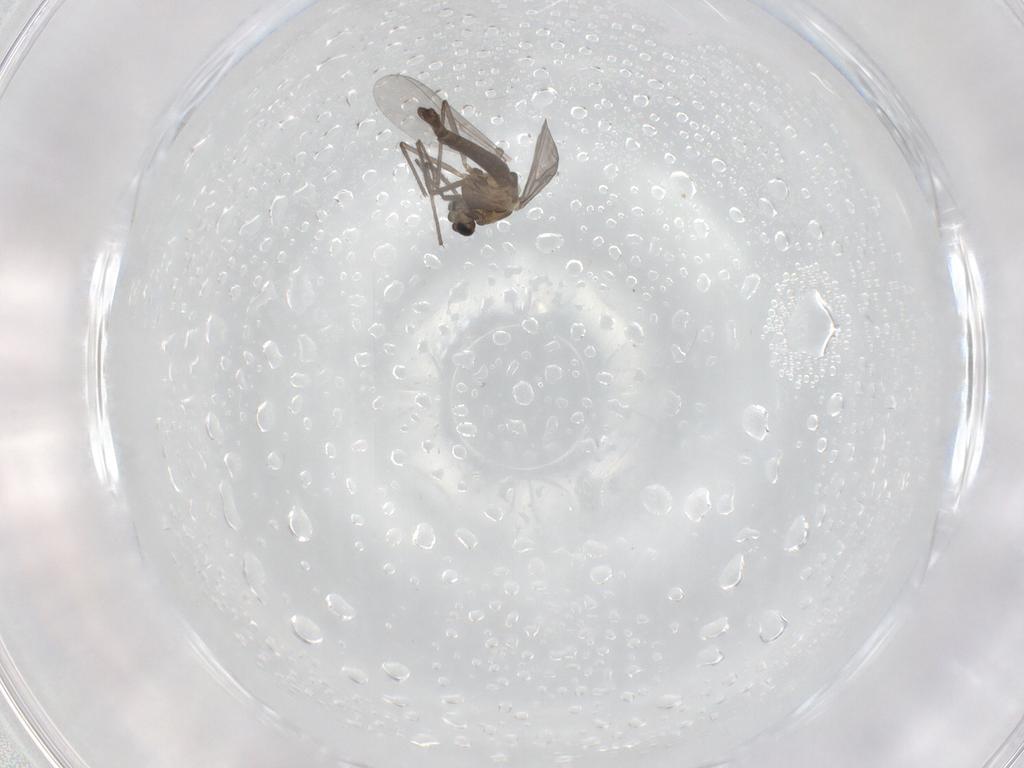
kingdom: Animalia
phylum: Arthropoda
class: Insecta
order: Diptera
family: Chironomidae
